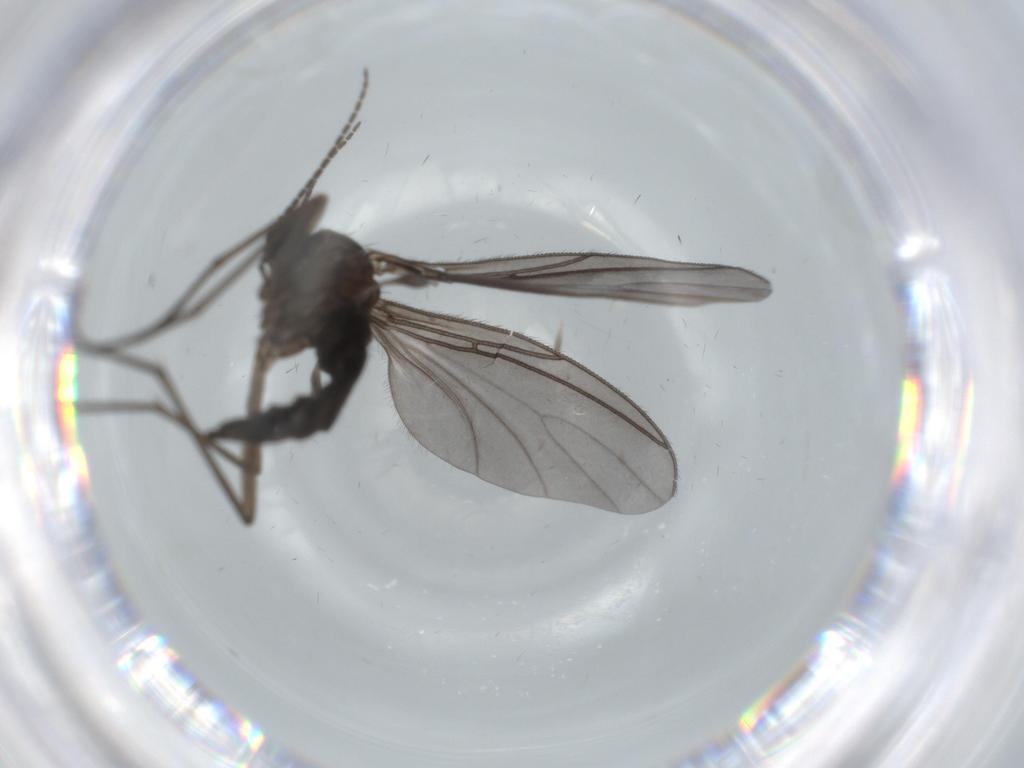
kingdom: Animalia
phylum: Arthropoda
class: Insecta
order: Diptera
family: Sciaridae
